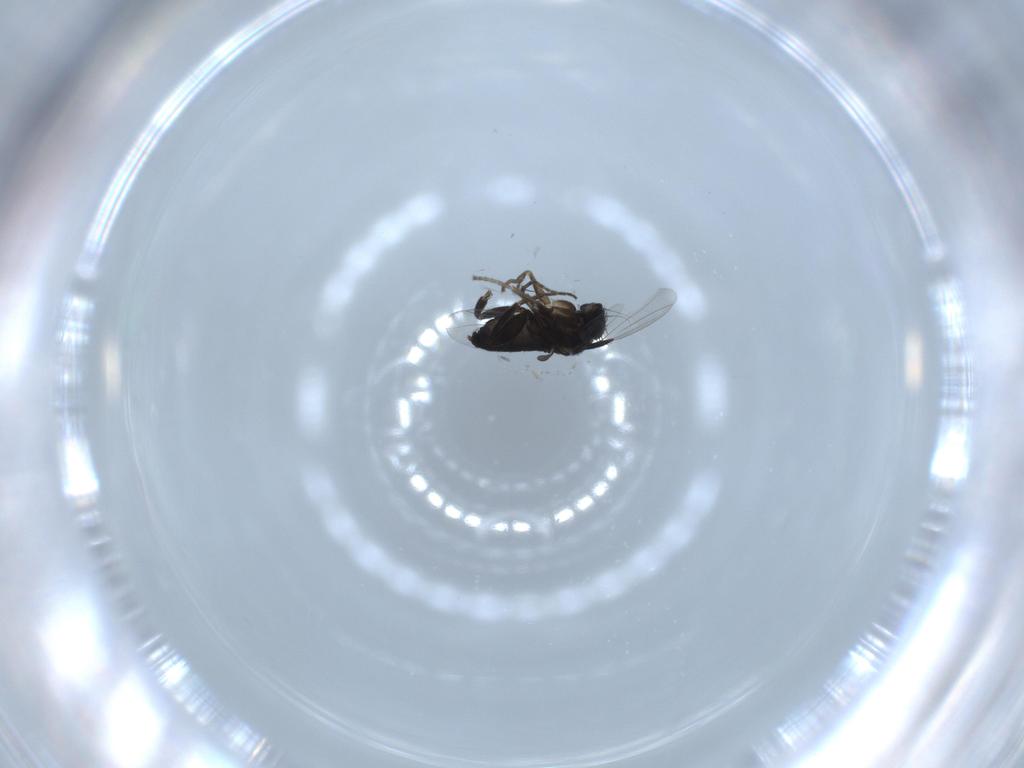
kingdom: Animalia
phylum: Arthropoda
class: Insecta
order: Diptera
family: Phoridae
